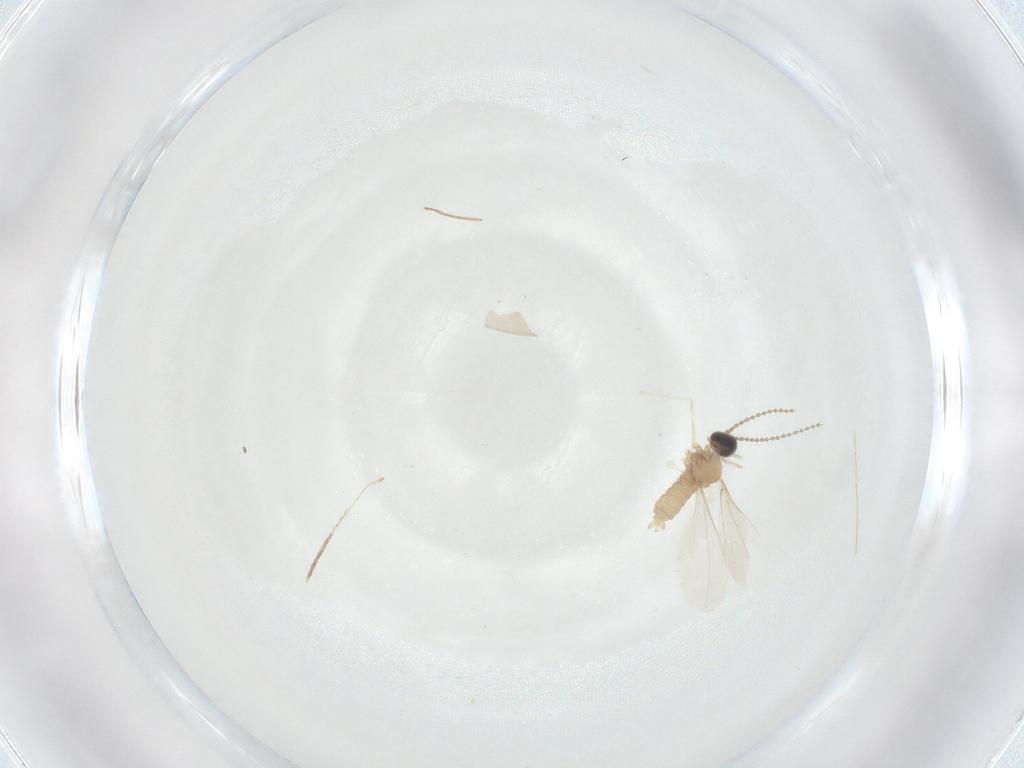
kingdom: Animalia
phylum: Arthropoda
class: Insecta
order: Diptera
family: Cecidomyiidae
